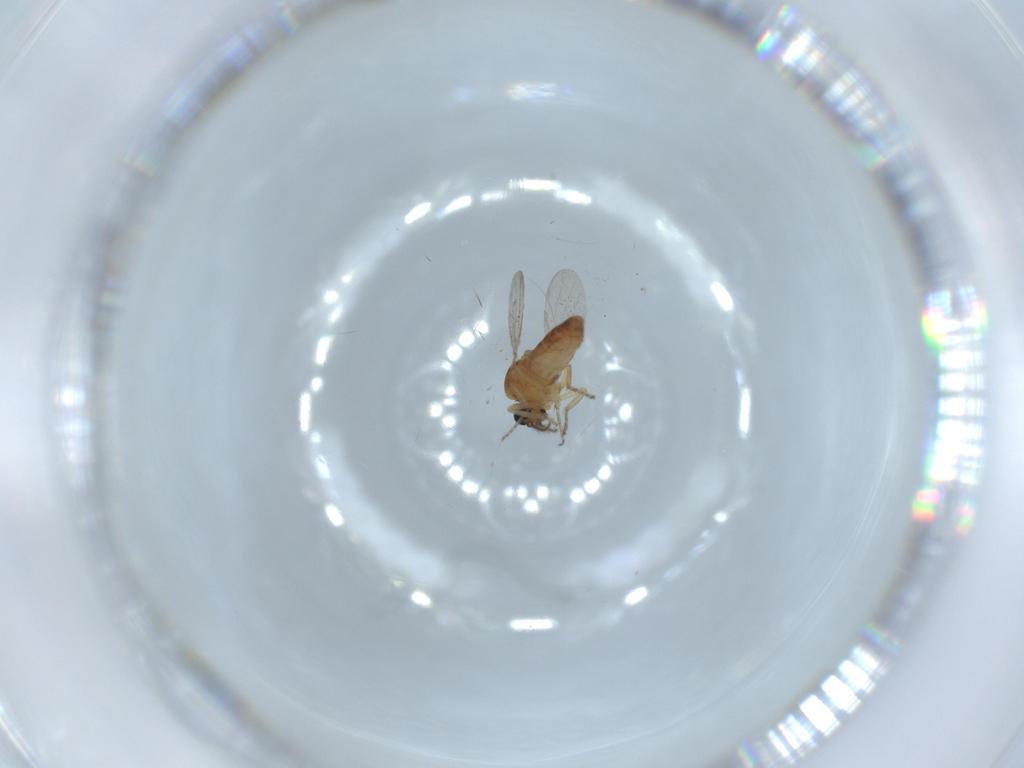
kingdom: Animalia
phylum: Arthropoda
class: Insecta
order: Diptera
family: Ceratopogonidae
